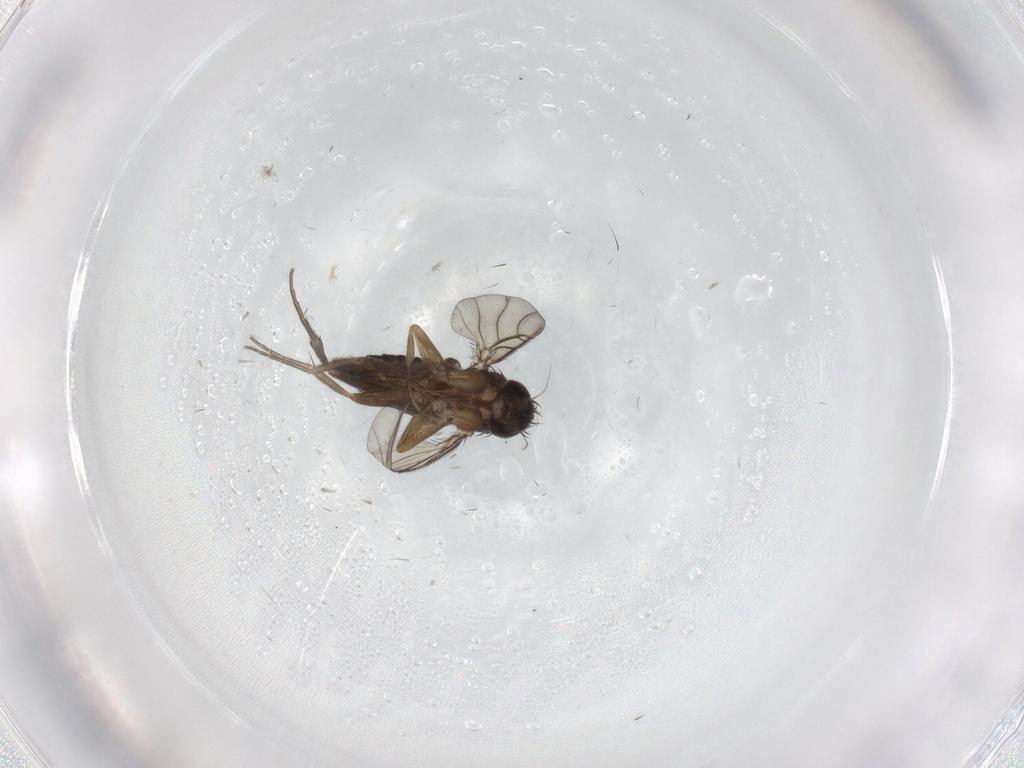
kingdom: Animalia
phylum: Arthropoda
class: Insecta
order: Diptera
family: Phoridae
